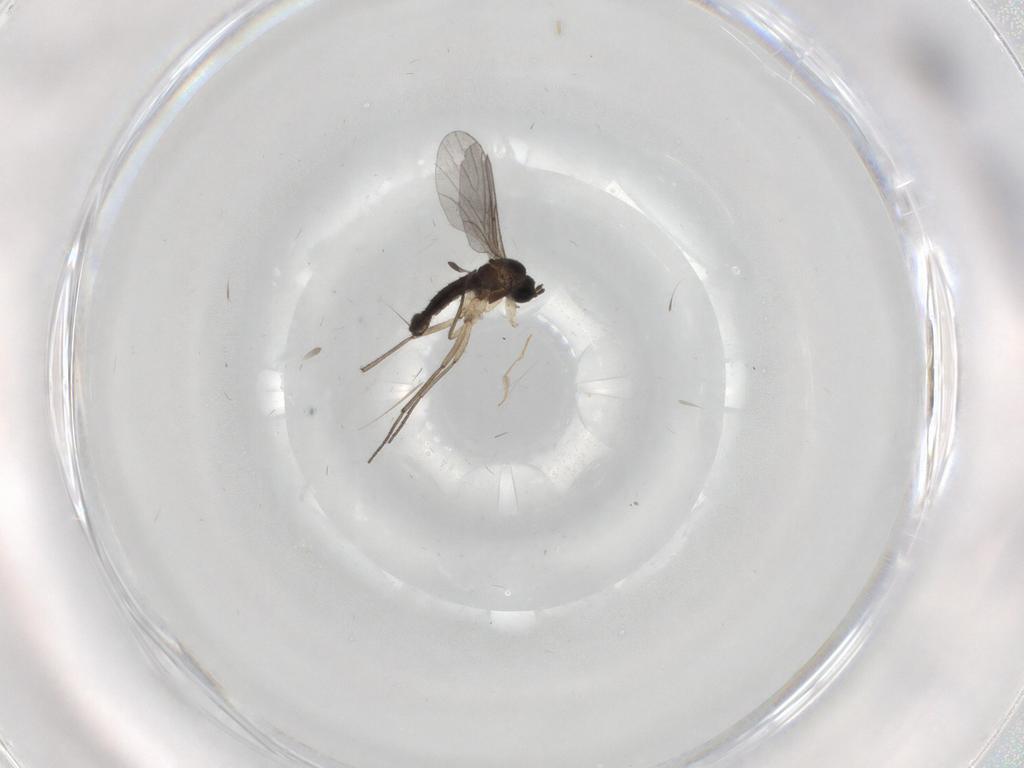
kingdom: Animalia
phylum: Arthropoda
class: Insecta
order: Diptera
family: Sciaridae
